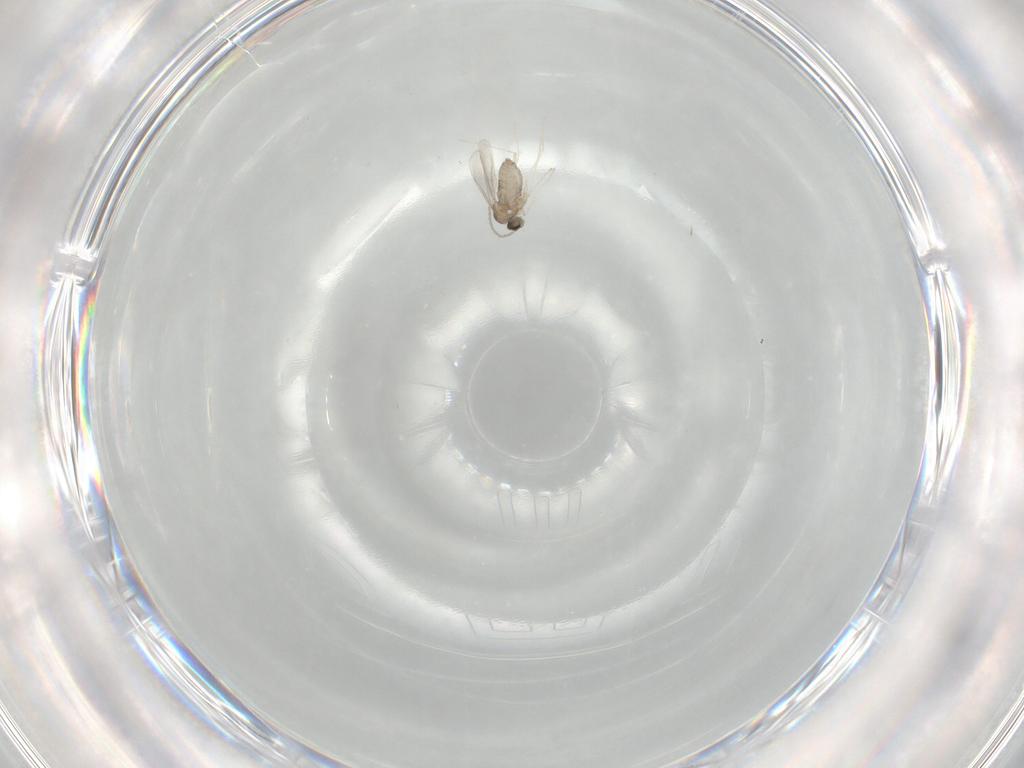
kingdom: Animalia
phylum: Arthropoda
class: Insecta
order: Diptera
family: Cecidomyiidae
